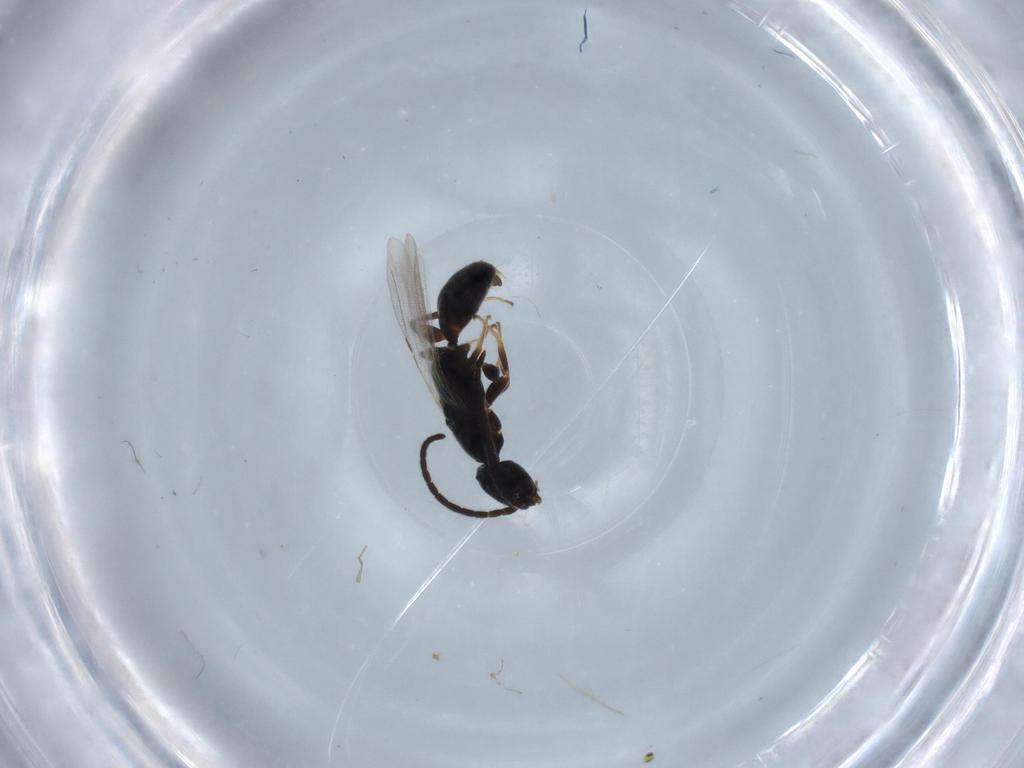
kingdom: Animalia
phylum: Arthropoda
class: Insecta
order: Hymenoptera
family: Bethylidae
